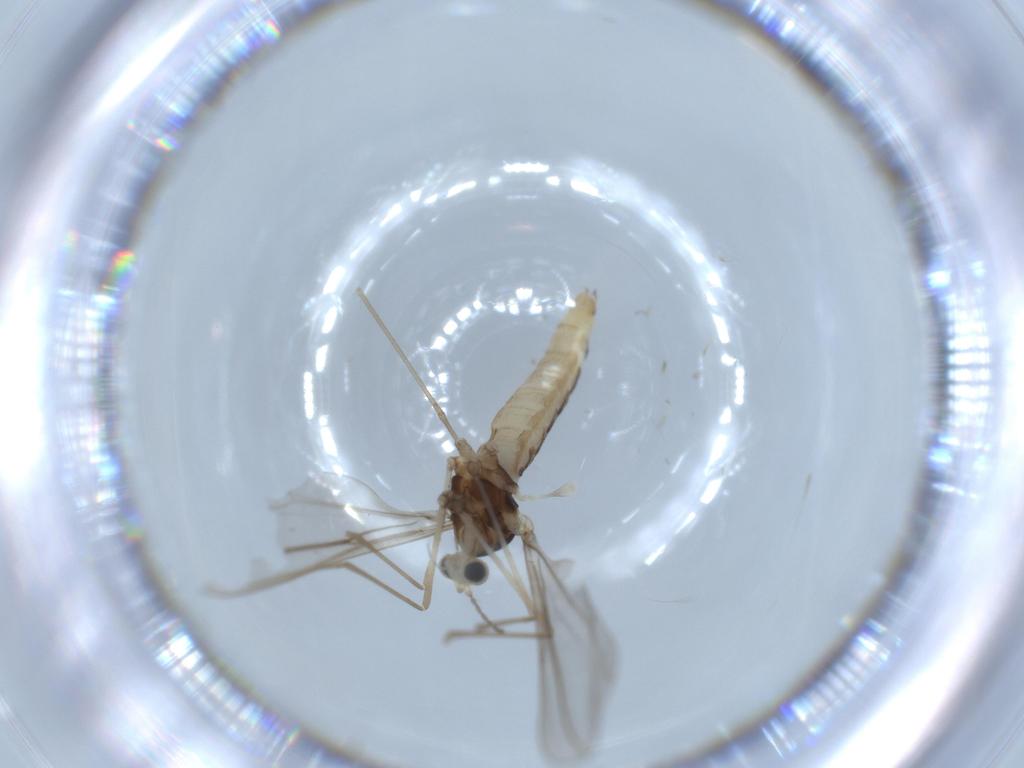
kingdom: Animalia
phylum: Arthropoda
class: Insecta
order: Diptera
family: Cecidomyiidae
